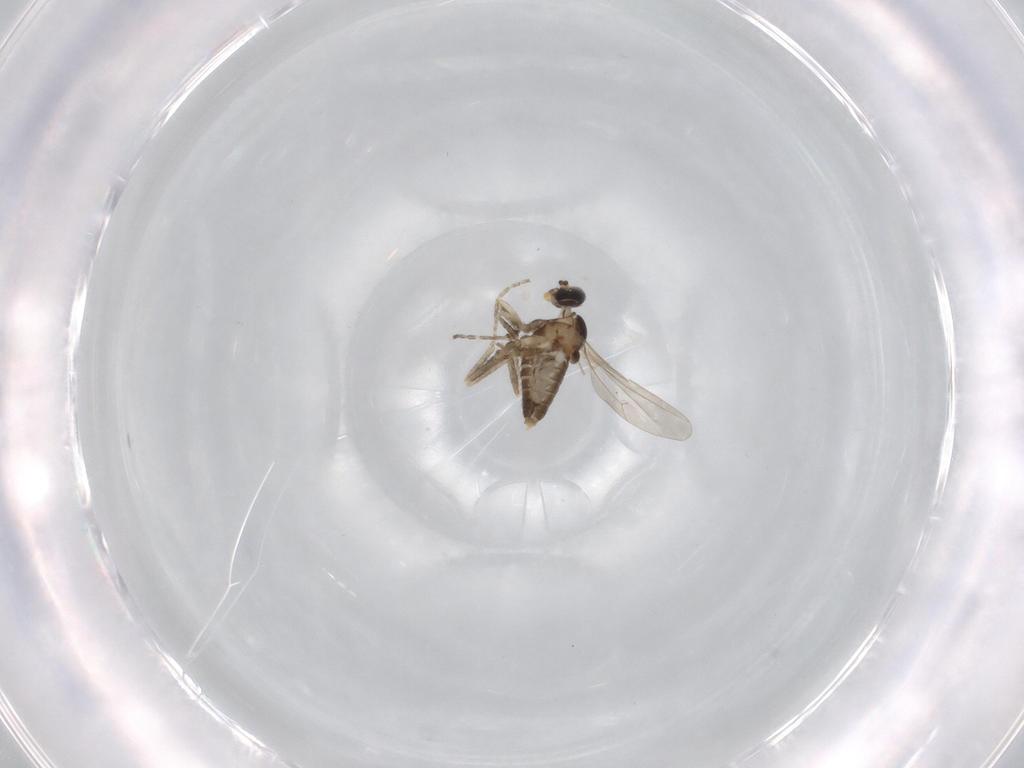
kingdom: Animalia
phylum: Arthropoda
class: Insecta
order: Diptera
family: Cecidomyiidae
